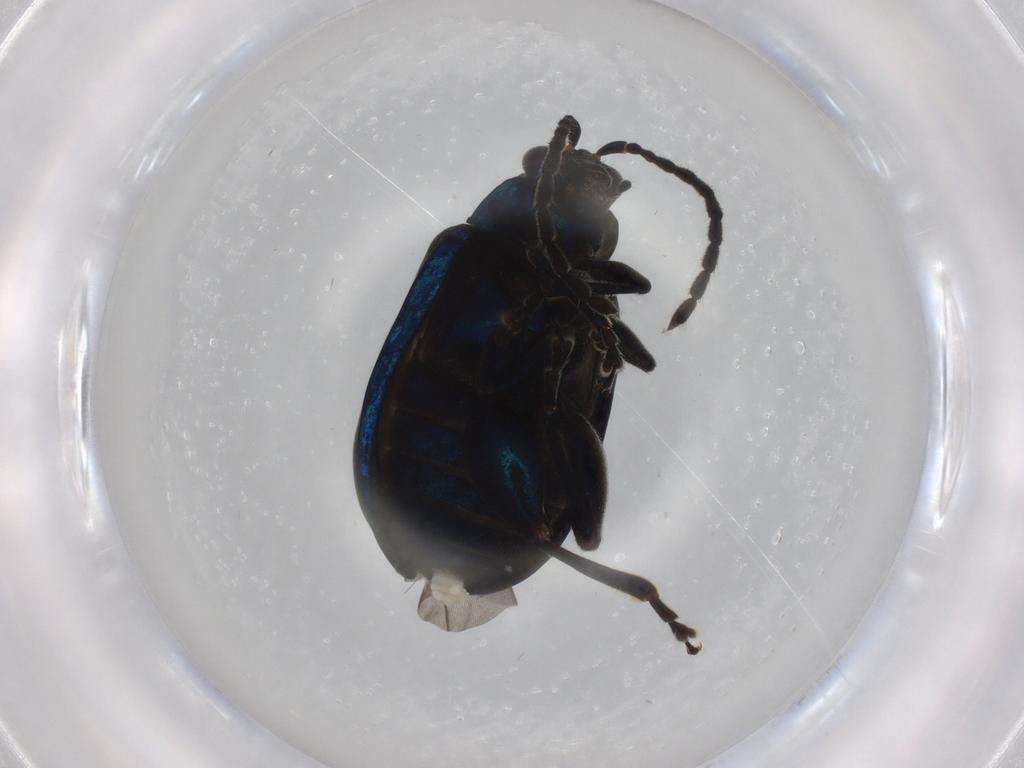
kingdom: Animalia
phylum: Arthropoda
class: Insecta
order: Coleoptera
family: Chrysomelidae
